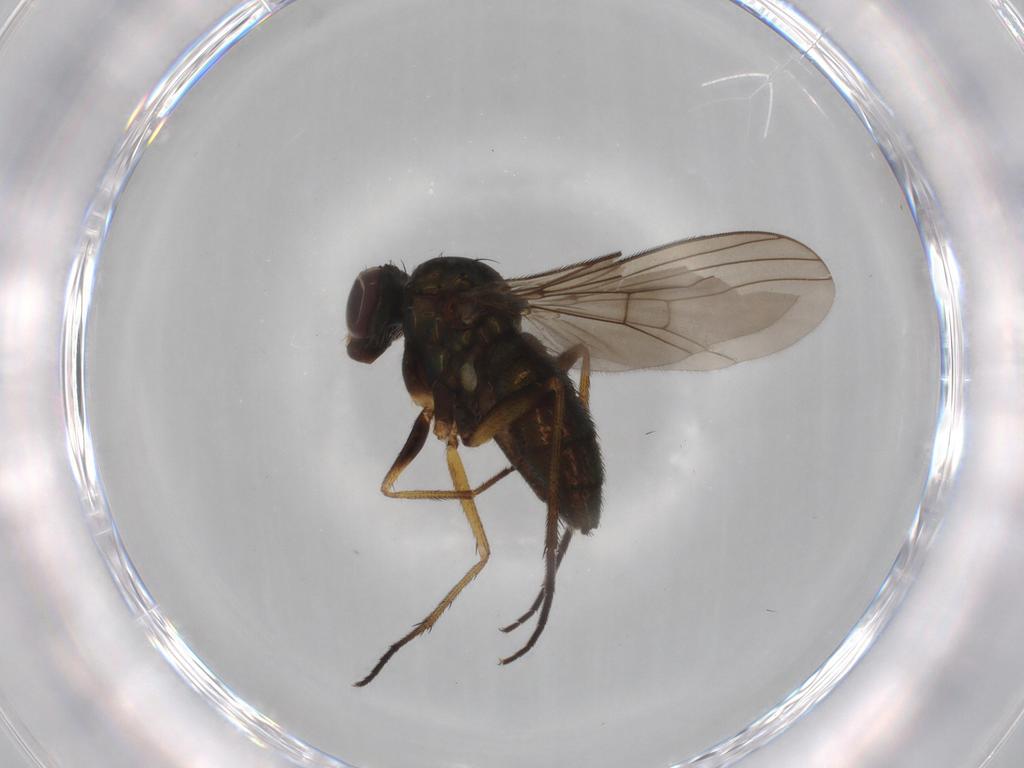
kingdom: Animalia
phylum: Arthropoda
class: Insecta
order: Diptera
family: Dolichopodidae
